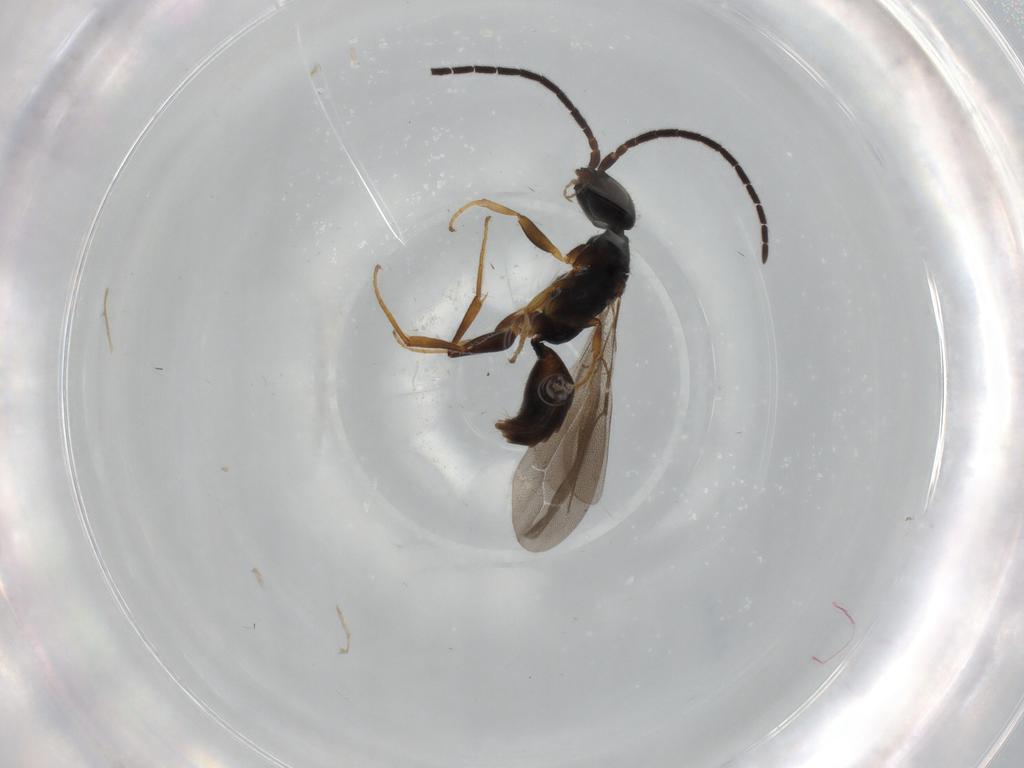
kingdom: Animalia
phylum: Arthropoda
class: Insecta
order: Hymenoptera
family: Bethylidae
